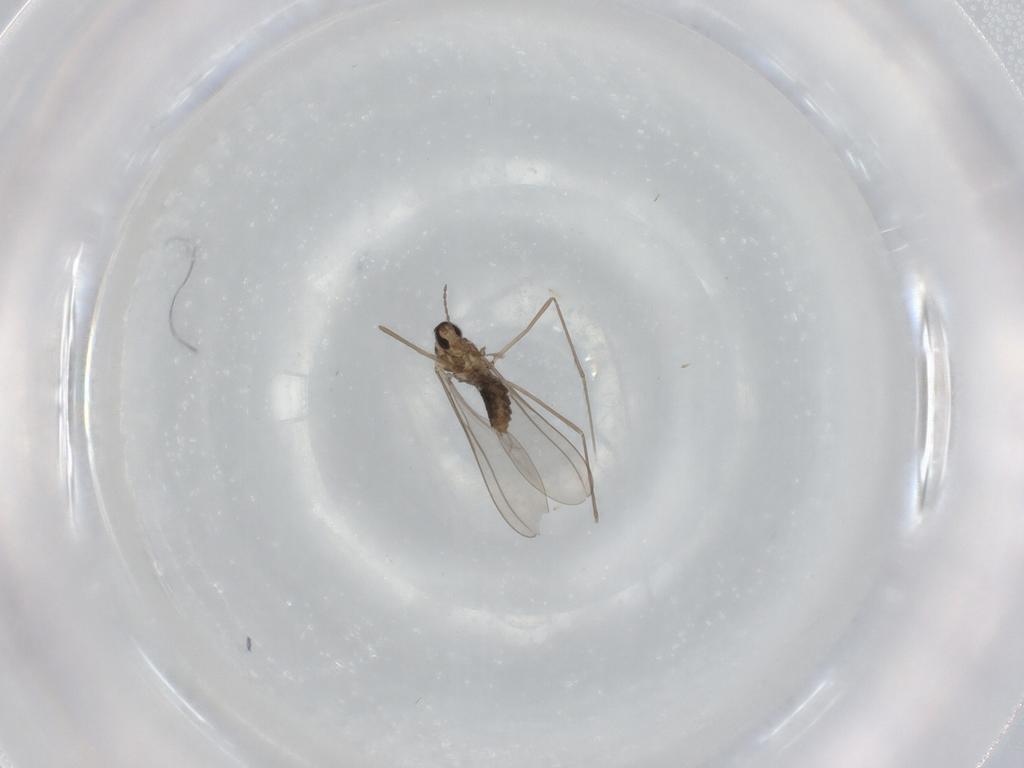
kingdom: Animalia
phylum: Arthropoda
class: Insecta
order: Diptera
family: Cecidomyiidae
